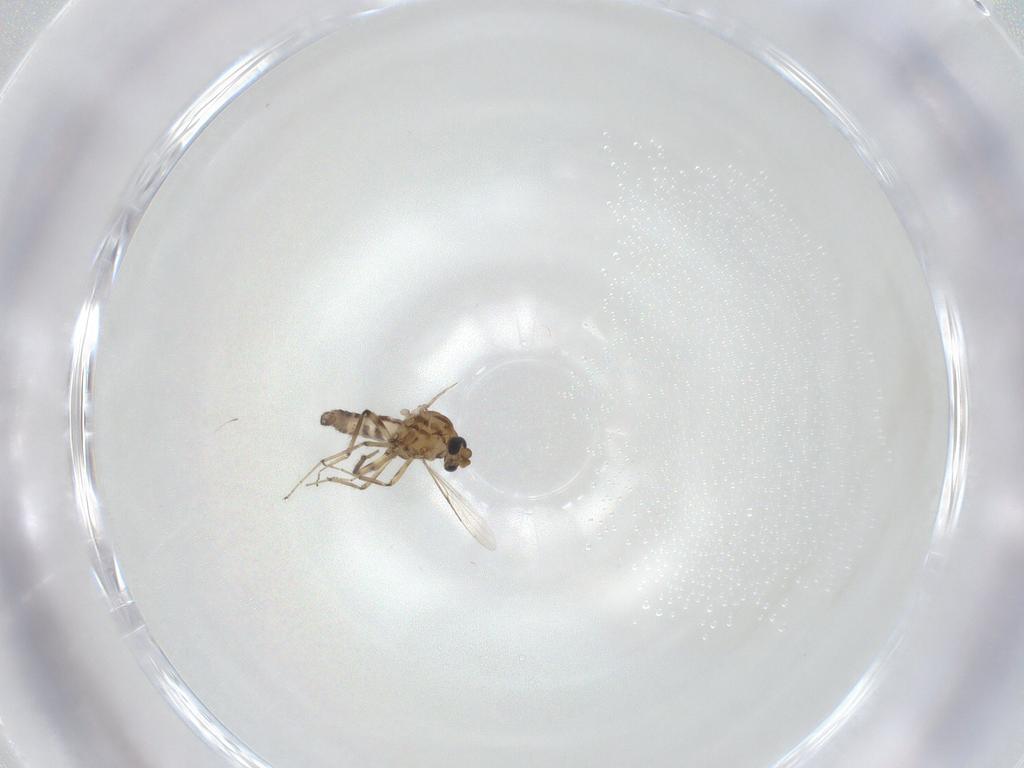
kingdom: Animalia
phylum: Arthropoda
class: Insecta
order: Diptera
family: Ceratopogonidae
